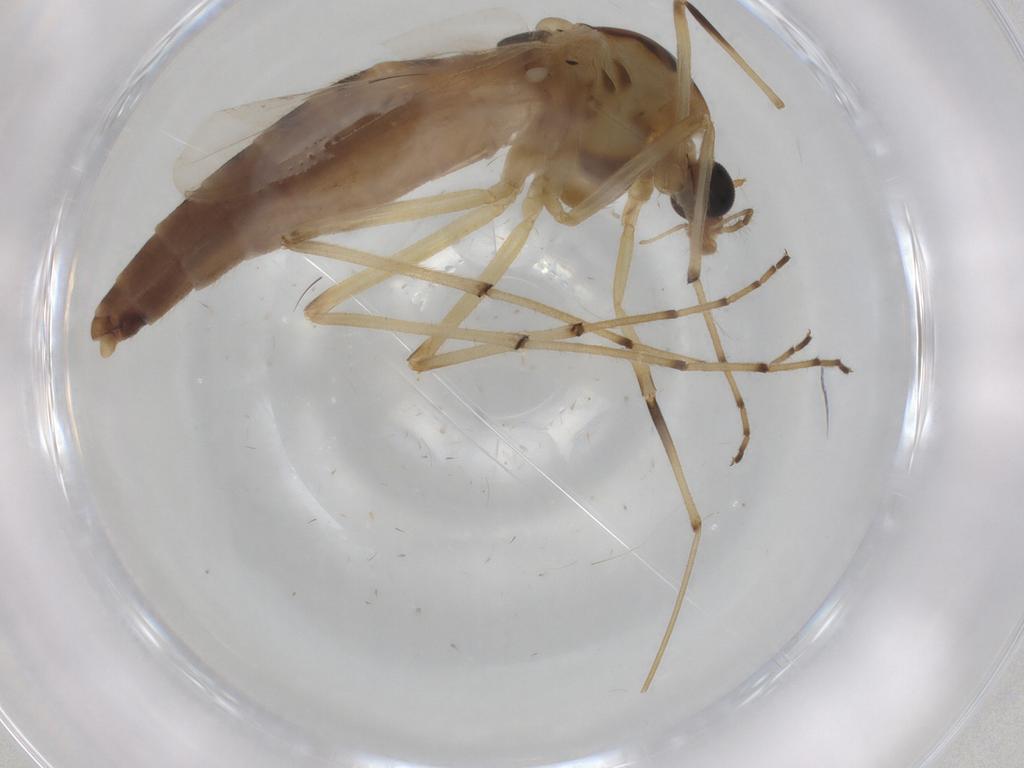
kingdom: Animalia
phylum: Arthropoda
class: Insecta
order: Diptera
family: Chironomidae
